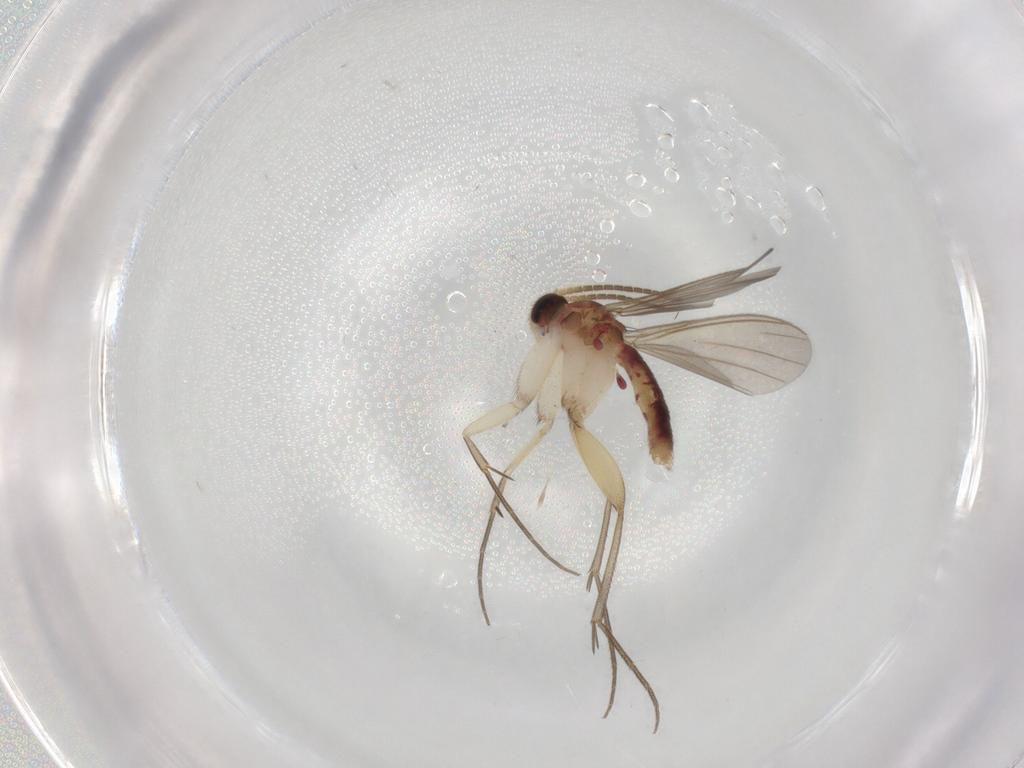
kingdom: Animalia
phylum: Arthropoda
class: Insecta
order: Diptera
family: Mycetophilidae
